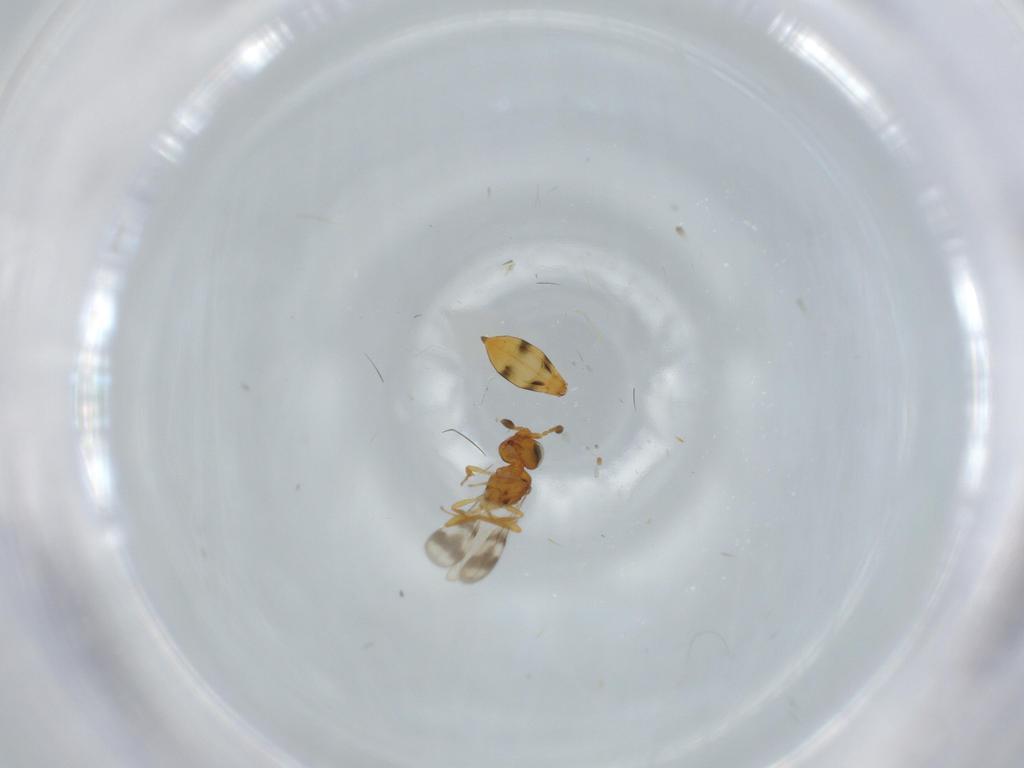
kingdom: Animalia
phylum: Arthropoda
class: Insecta
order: Hymenoptera
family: Scelionidae
